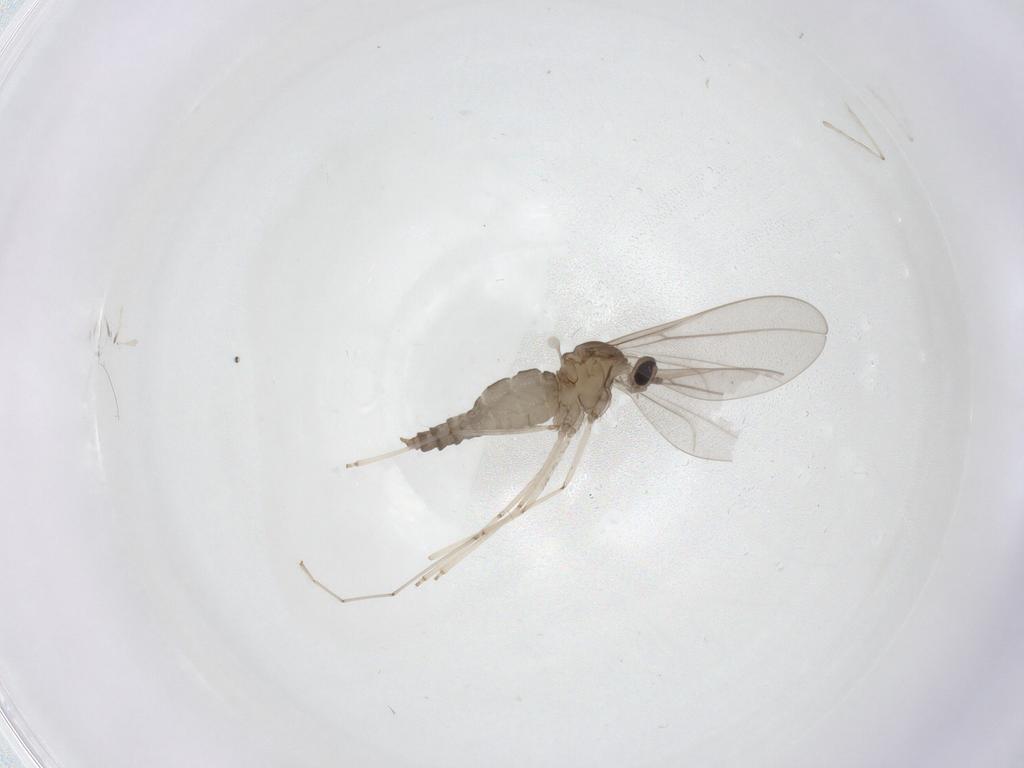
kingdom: Animalia
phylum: Arthropoda
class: Insecta
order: Diptera
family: Cecidomyiidae
